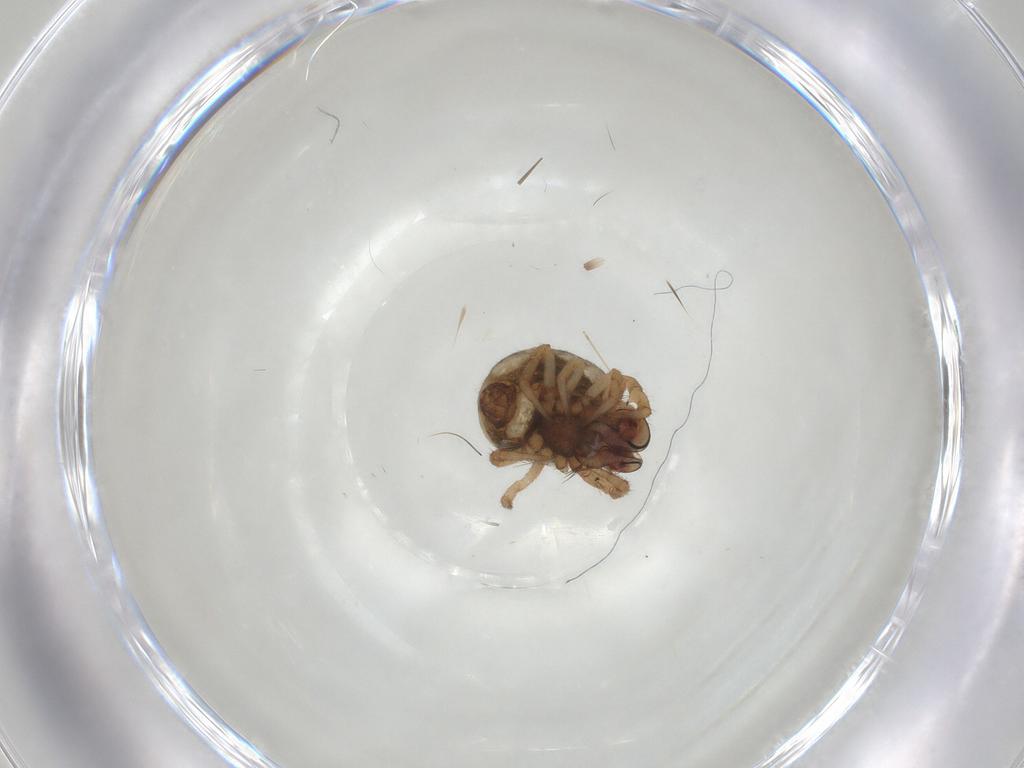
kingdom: Animalia
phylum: Arthropoda
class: Arachnida
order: Araneae
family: Theridiidae
